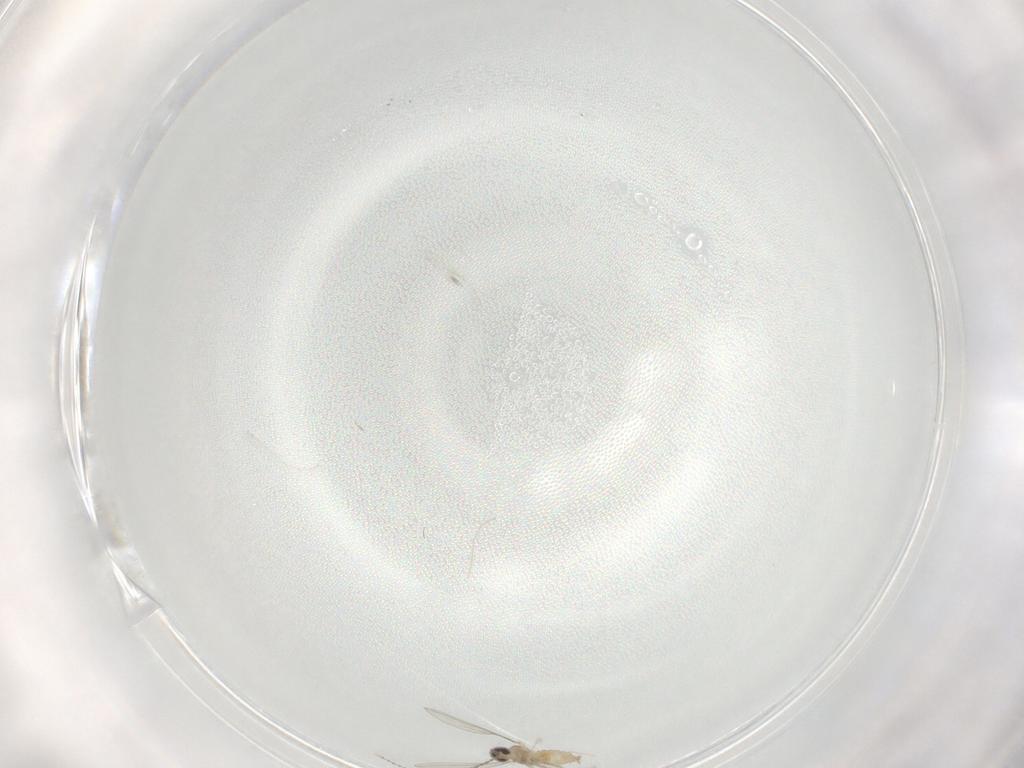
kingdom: Animalia
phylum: Arthropoda
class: Insecta
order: Diptera
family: Cecidomyiidae
